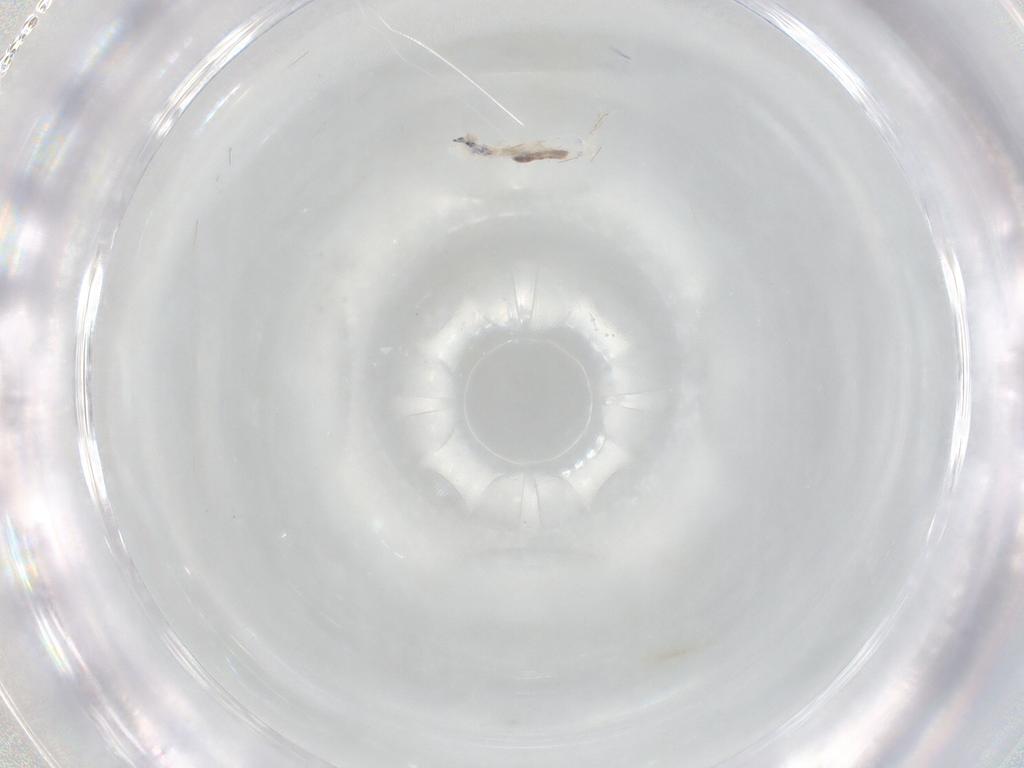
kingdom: Animalia
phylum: Arthropoda
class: Collembola
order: Entomobryomorpha
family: Entomobryidae
